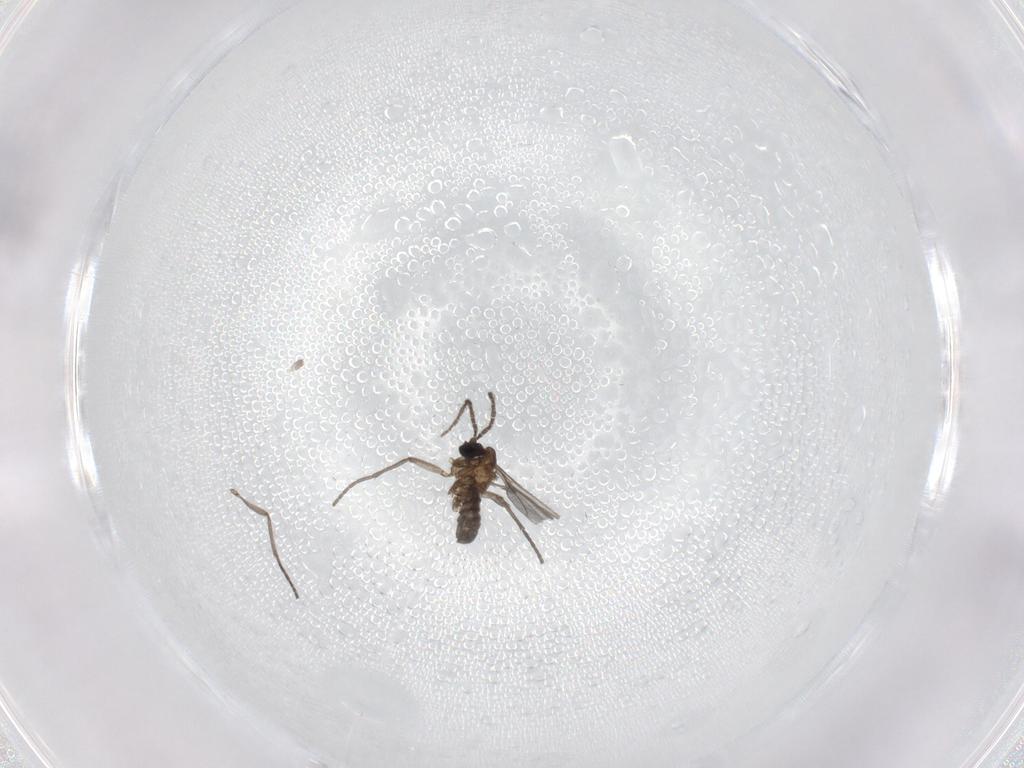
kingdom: Animalia
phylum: Arthropoda
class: Insecta
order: Diptera
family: Sciaridae
